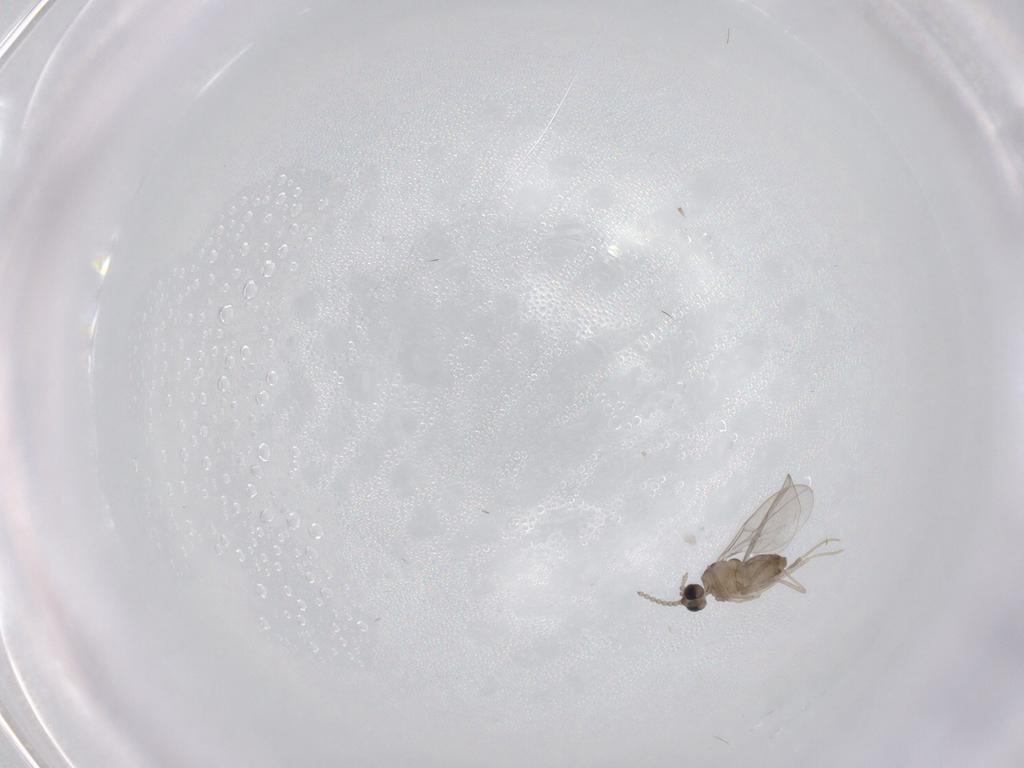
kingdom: Animalia
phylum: Arthropoda
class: Insecta
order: Diptera
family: Cecidomyiidae
